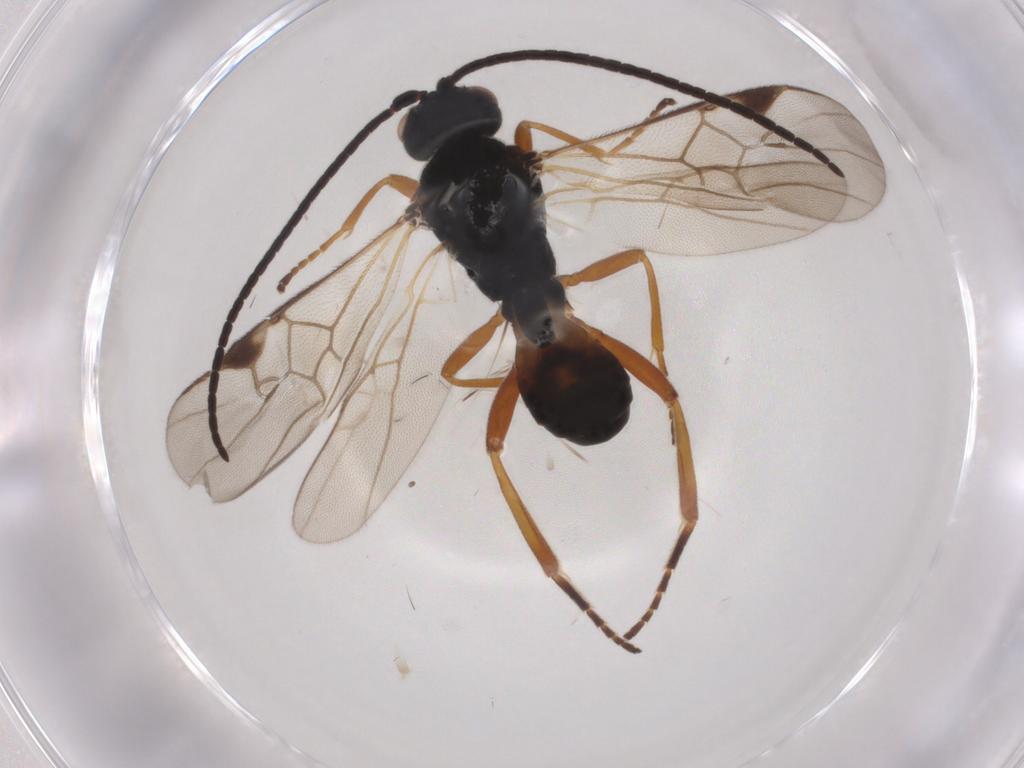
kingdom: Animalia
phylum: Arthropoda
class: Insecta
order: Hymenoptera
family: Braconidae
